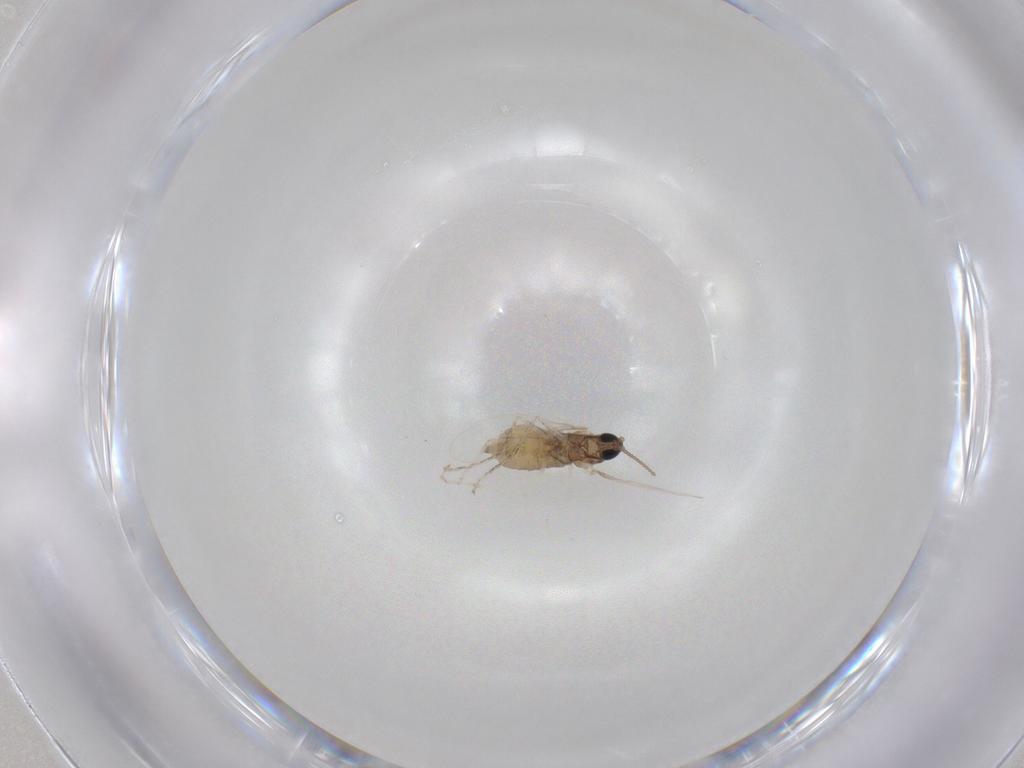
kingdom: Animalia
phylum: Arthropoda
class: Insecta
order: Diptera
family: Cecidomyiidae
